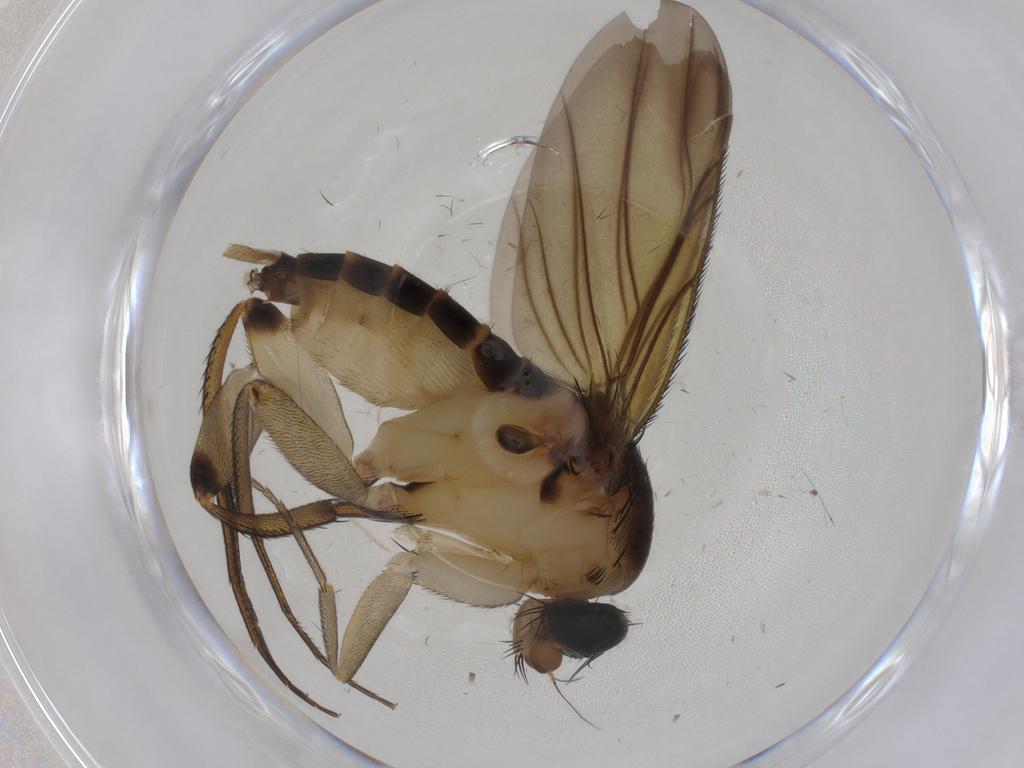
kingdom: Animalia
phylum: Arthropoda
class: Insecta
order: Diptera
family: Phoridae
